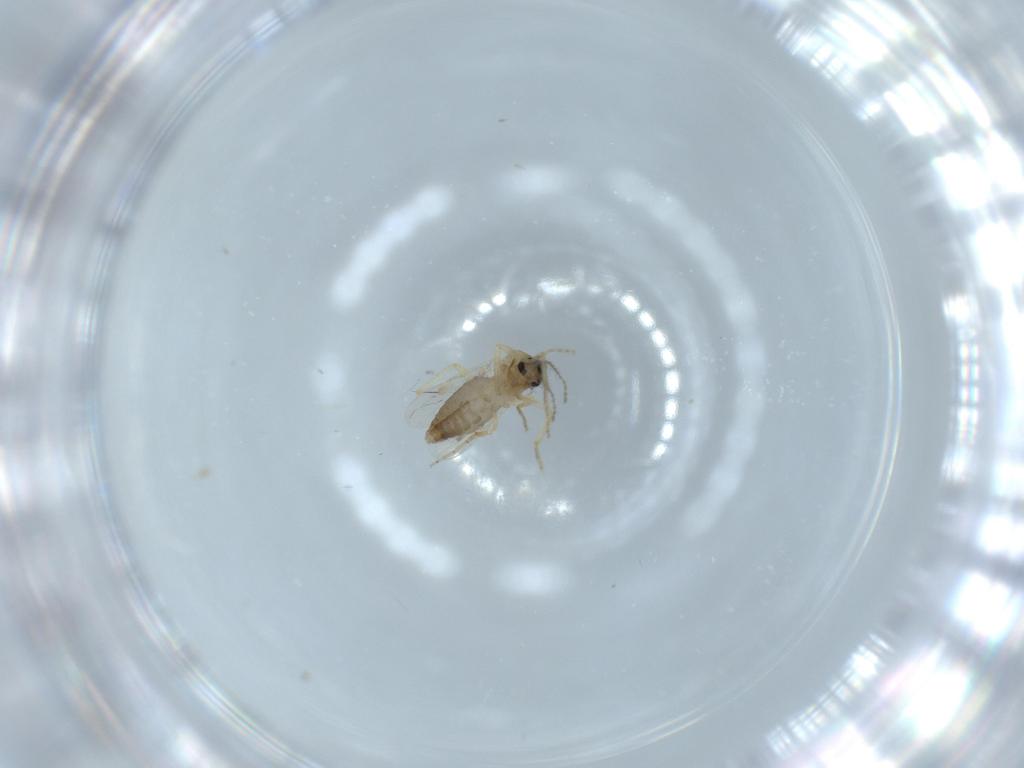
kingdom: Animalia
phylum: Arthropoda
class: Insecta
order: Diptera
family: Ceratopogonidae
